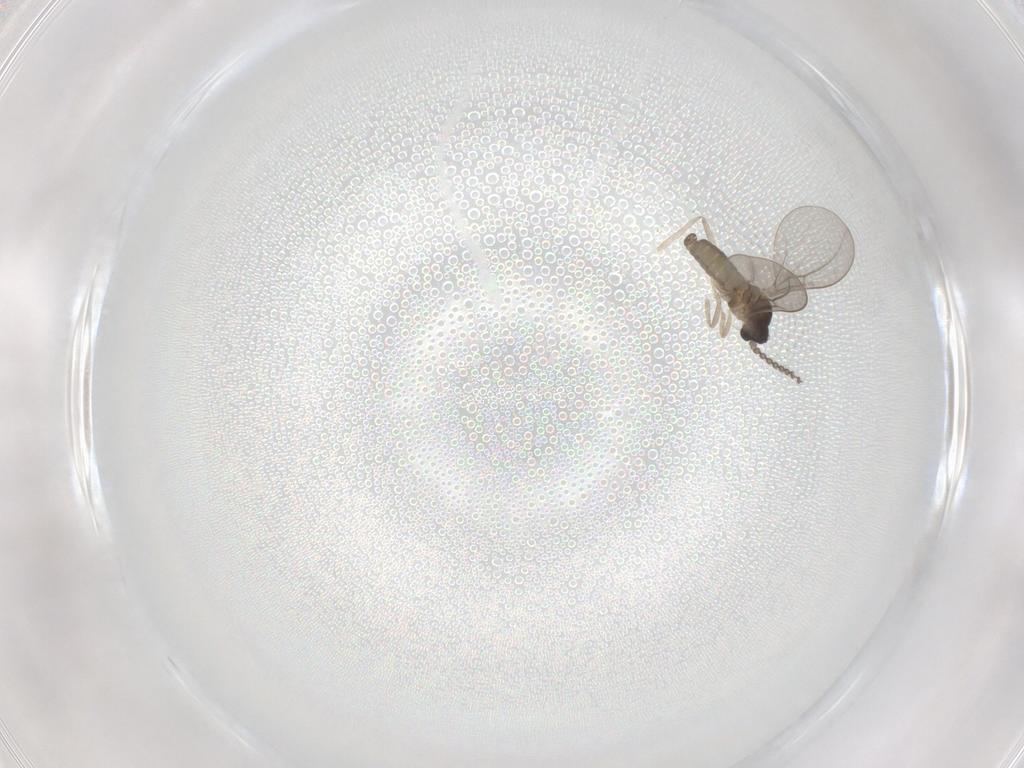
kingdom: Animalia
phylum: Arthropoda
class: Insecta
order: Diptera
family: Cecidomyiidae
